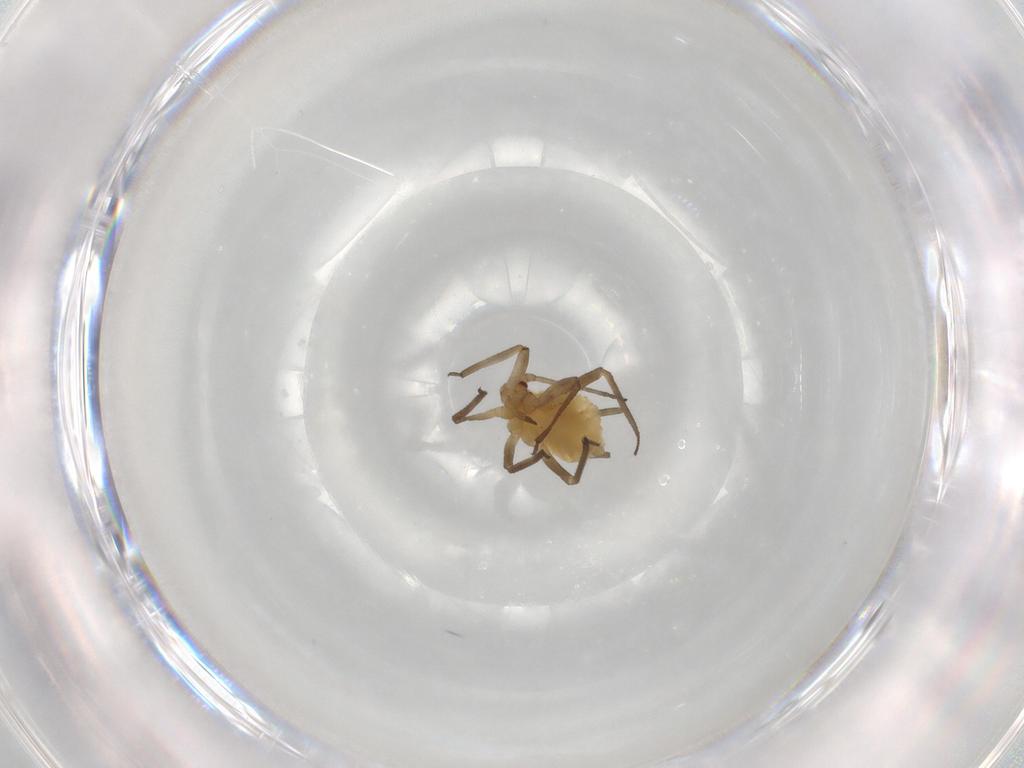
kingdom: Animalia
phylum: Arthropoda
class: Insecta
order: Hemiptera
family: Aphididae
